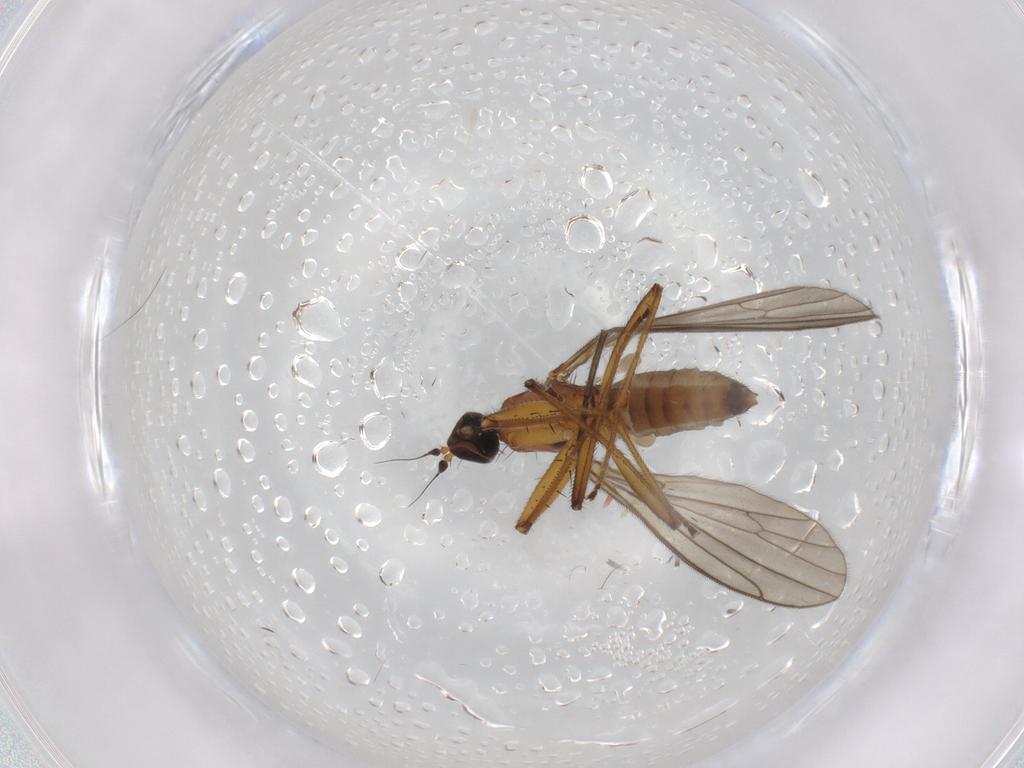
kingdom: Animalia
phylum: Arthropoda
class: Insecta
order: Diptera
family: Empididae
